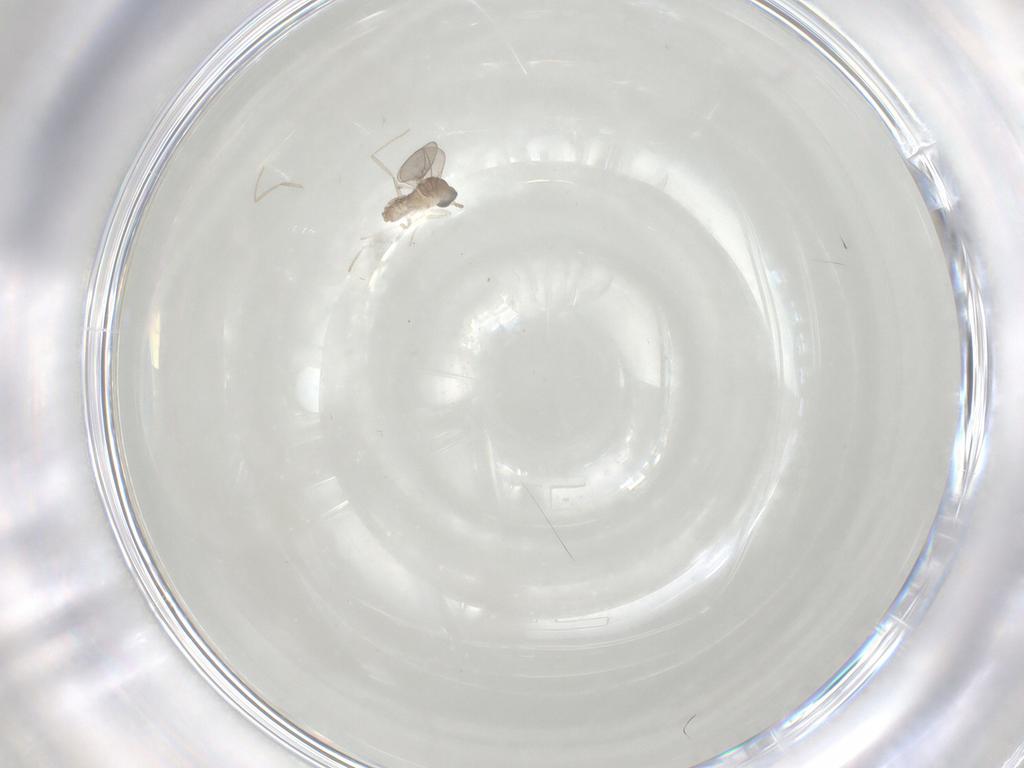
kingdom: Animalia
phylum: Arthropoda
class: Insecta
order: Diptera
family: Cecidomyiidae
